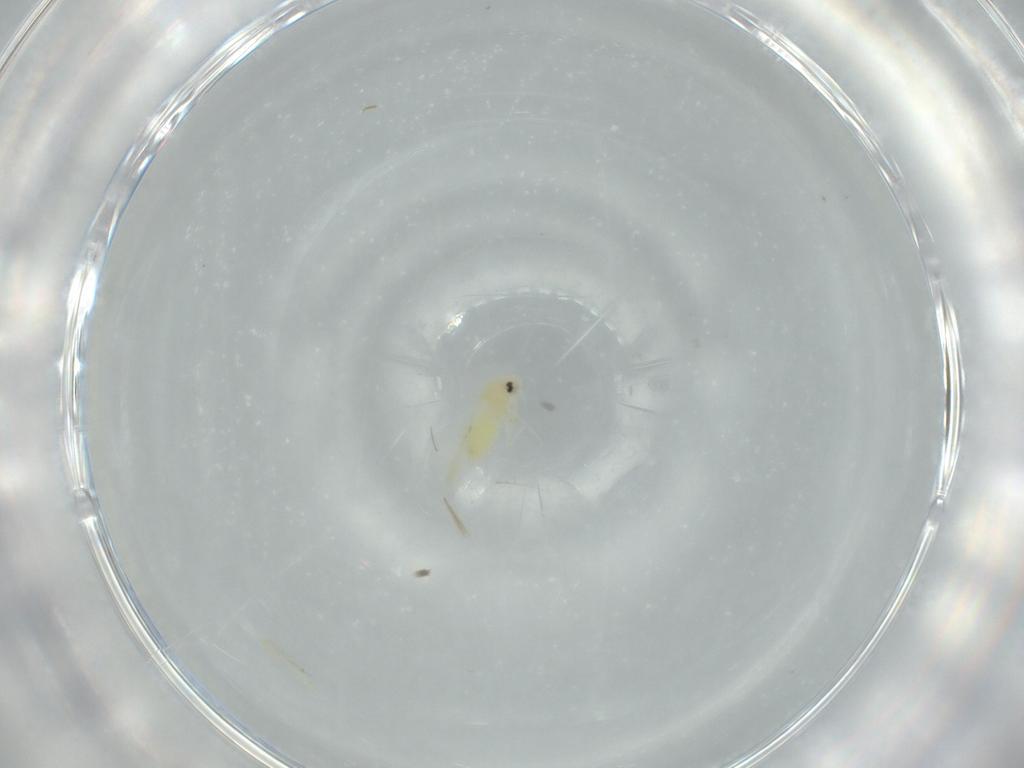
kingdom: Animalia
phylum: Arthropoda
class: Insecta
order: Hemiptera
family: Aleyrodidae
